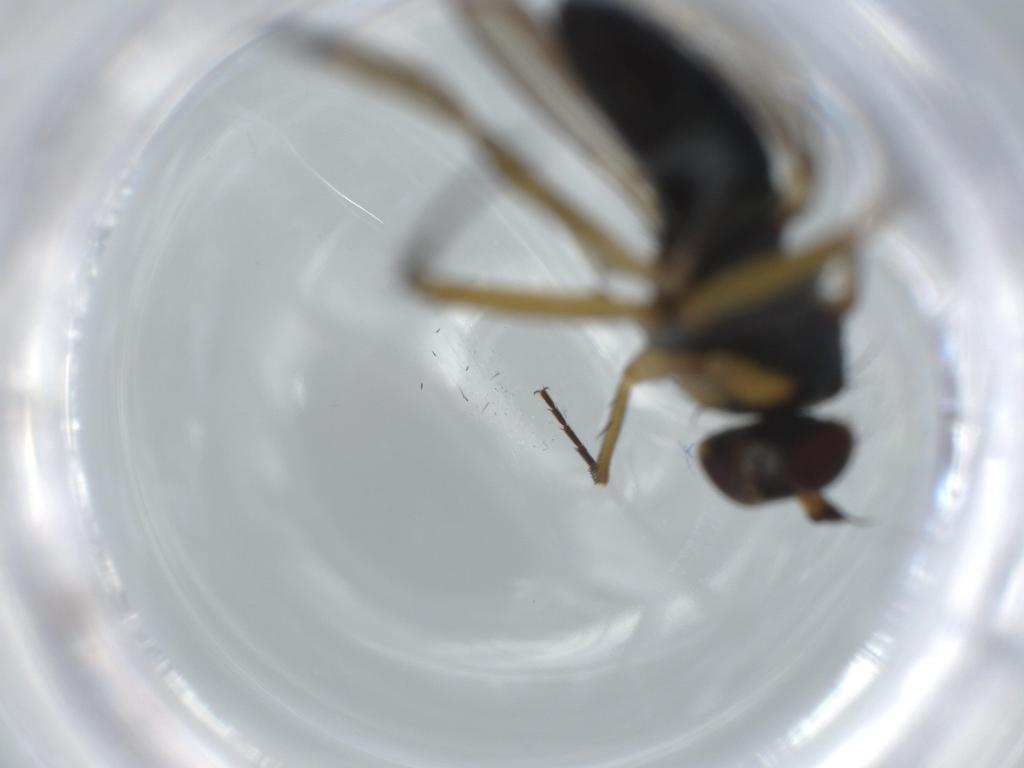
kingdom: Animalia
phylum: Arthropoda
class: Insecta
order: Diptera
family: Dolichopodidae
